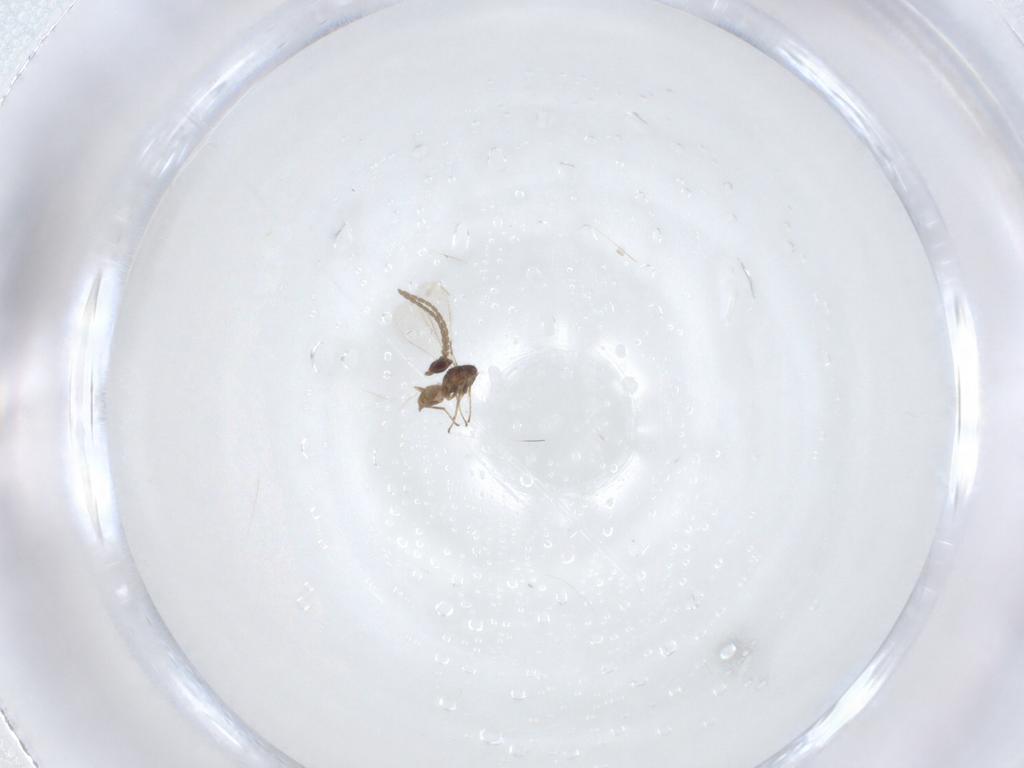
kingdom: Animalia
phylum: Arthropoda
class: Insecta
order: Hymenoptera
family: Mymaridae
